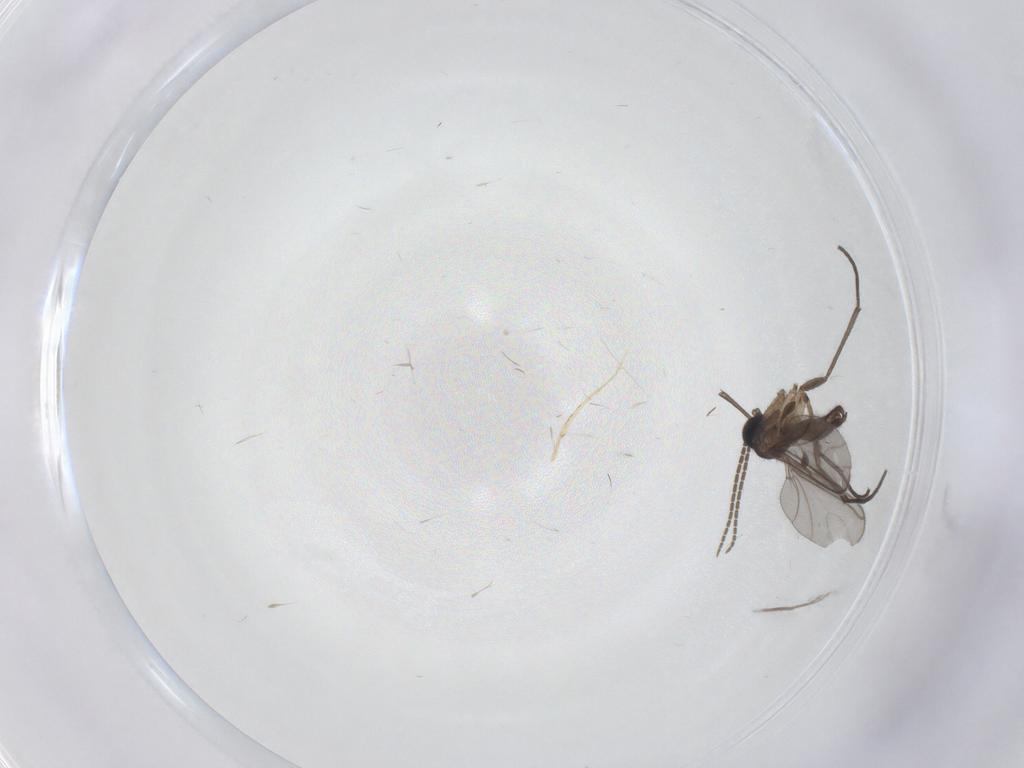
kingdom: Animalia
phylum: Arthropoda
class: Insecta
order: Diptera
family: Sciaridae
